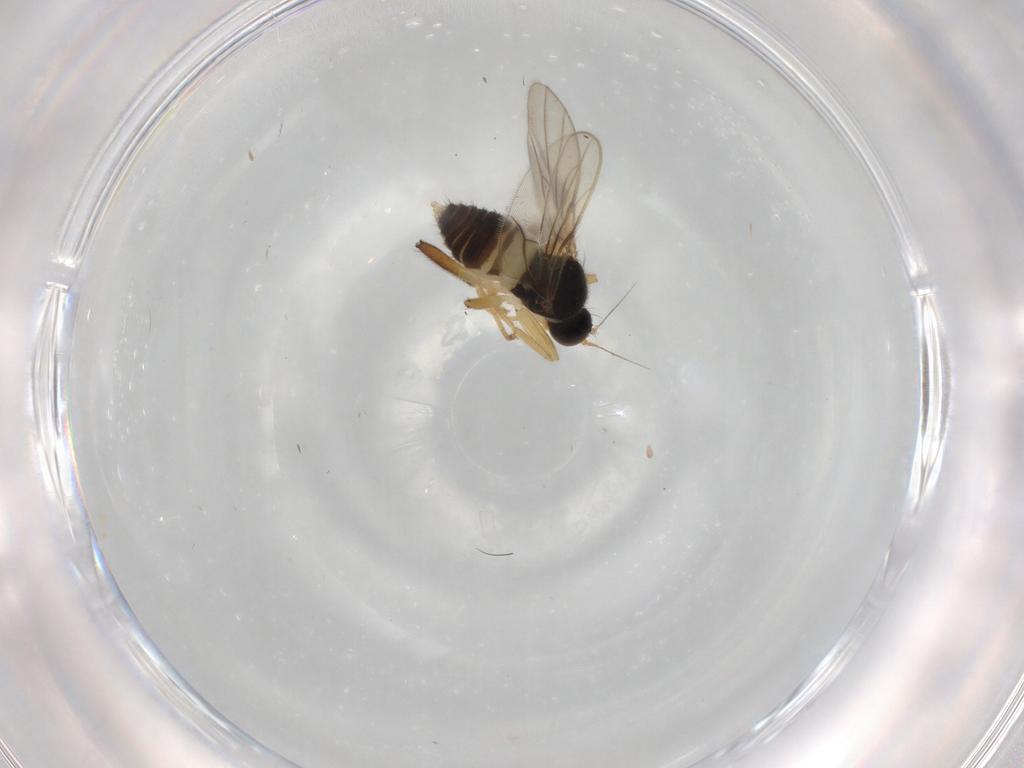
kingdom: Animalia
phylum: Arthropoda
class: Insecta
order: Diptera
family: Hybotidae
